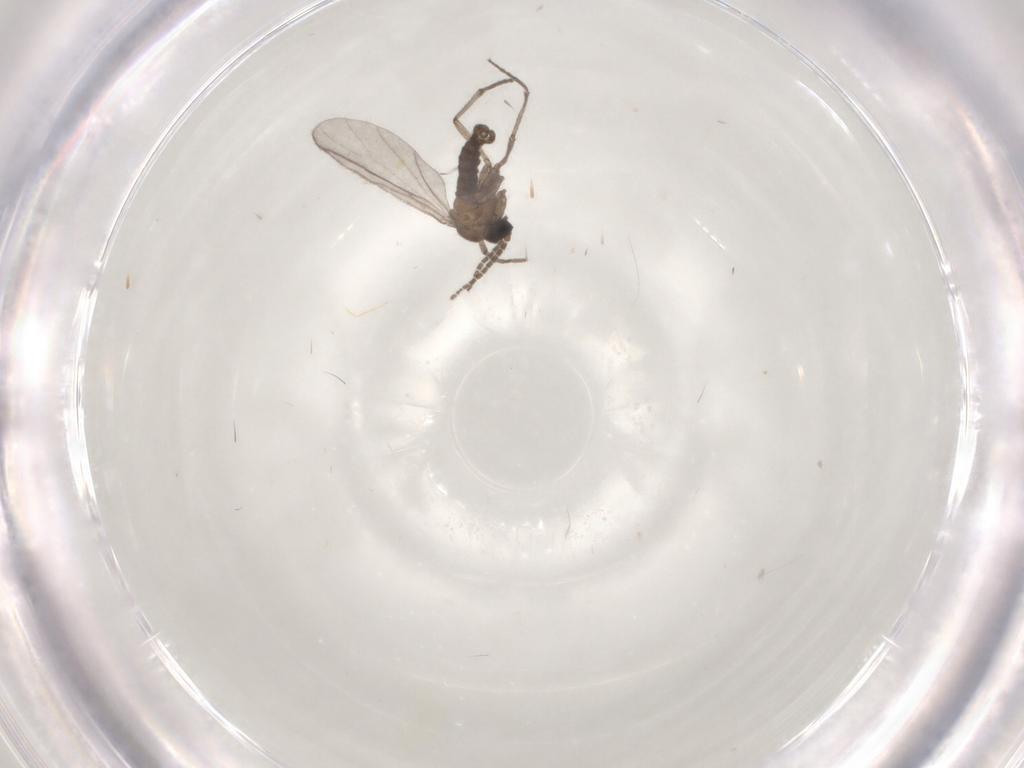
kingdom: Animalia
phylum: Arthropoda
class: Insecta
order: Diptera
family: Sciaridae
